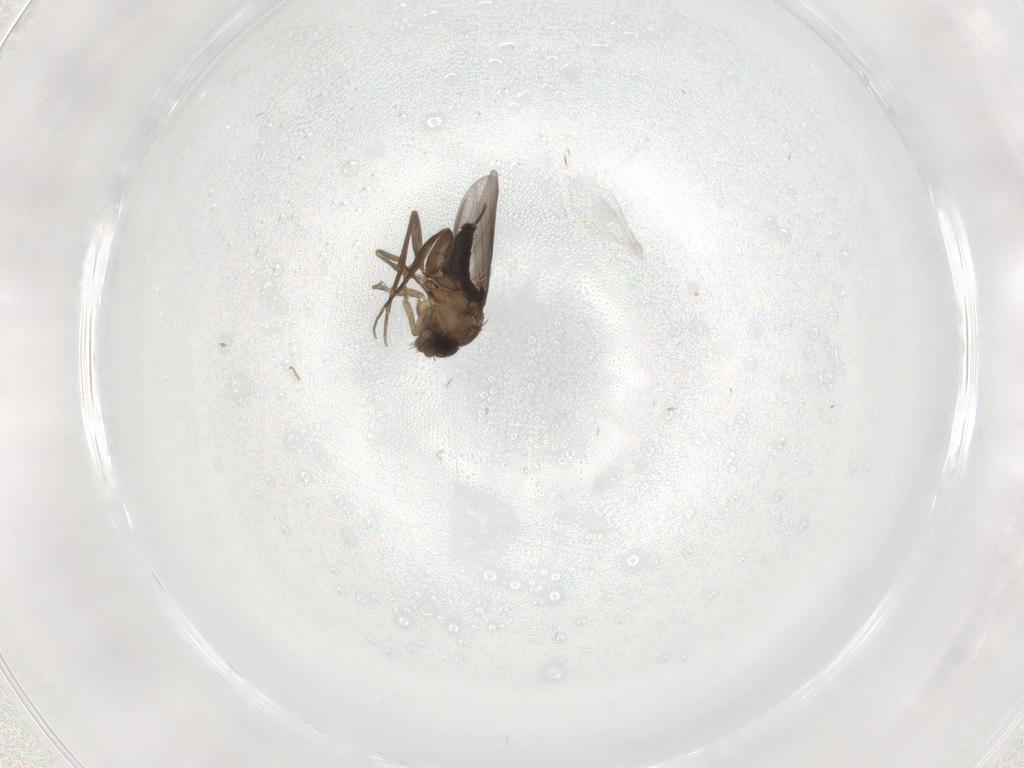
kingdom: Animalia
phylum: Arthropoda
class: Insecta
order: Diptera
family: Phoridae
